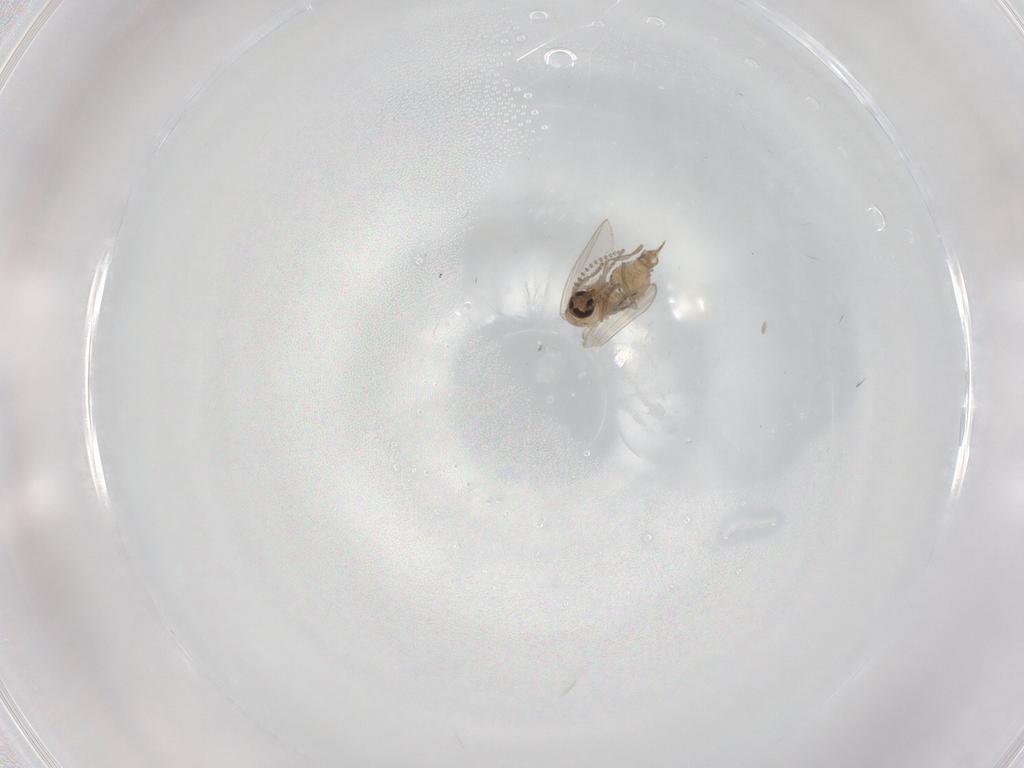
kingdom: Animalia
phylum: Arthropoda
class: Insecta
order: Diptera
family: Psychodidae
